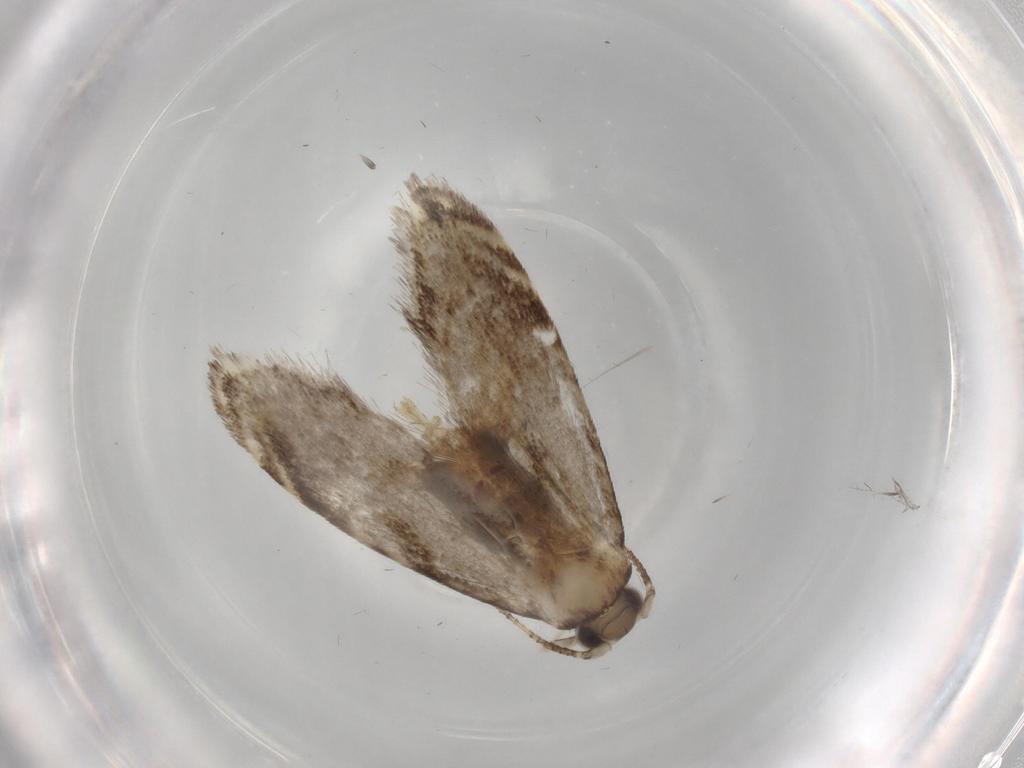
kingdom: Animalia
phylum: Arthropoda
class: Insecta
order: Lepidoptera
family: Tineidae
